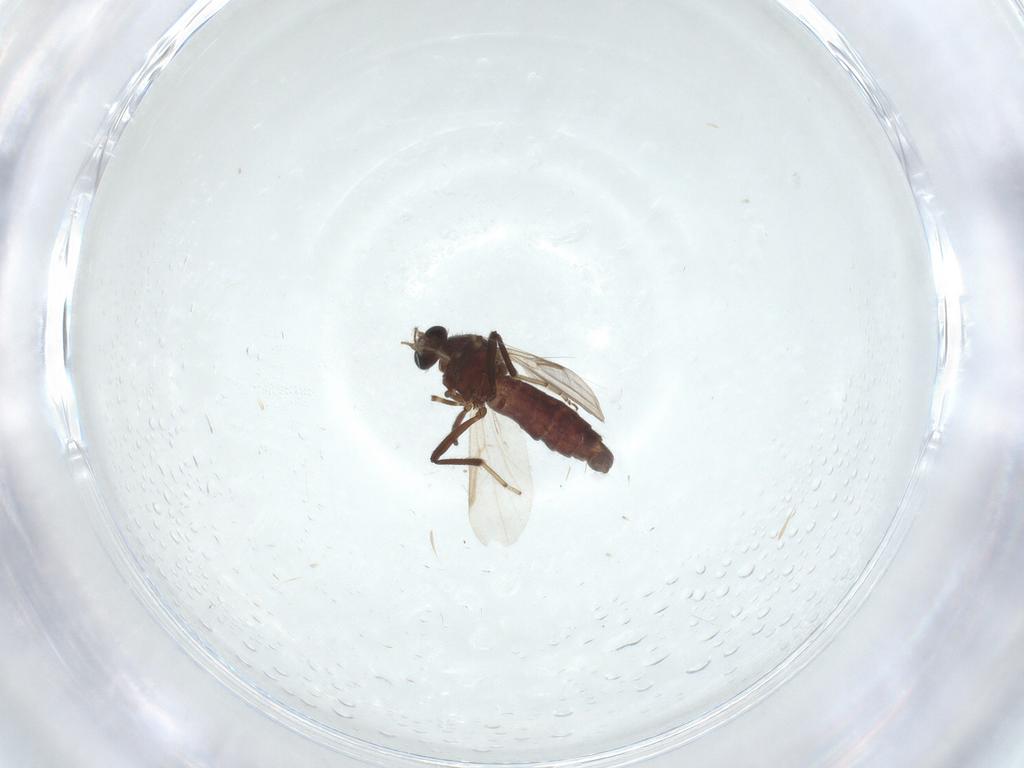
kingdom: Animalia
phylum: Arthropoda
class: Insecta
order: Diptera
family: Ceratopogonidae
